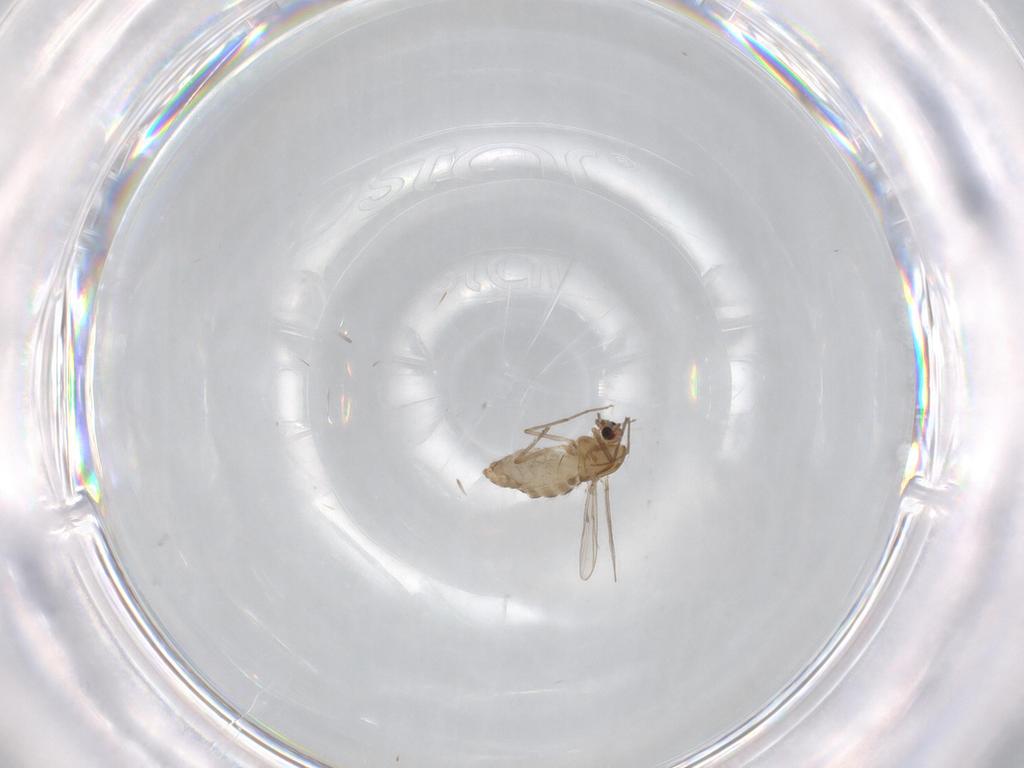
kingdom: Animalia
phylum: Arthropoda
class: Insecta
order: Diptera
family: Chironomidae
